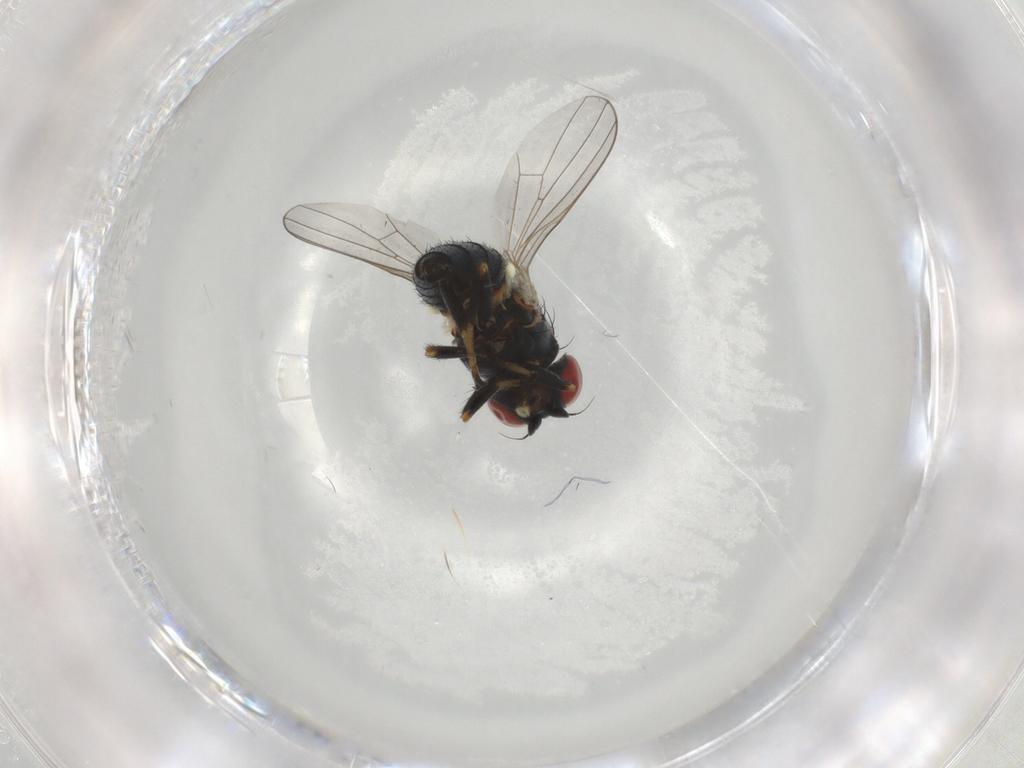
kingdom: Animalia
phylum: Arthropoda
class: Insecta
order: Diptera
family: Chamaemyiidae
